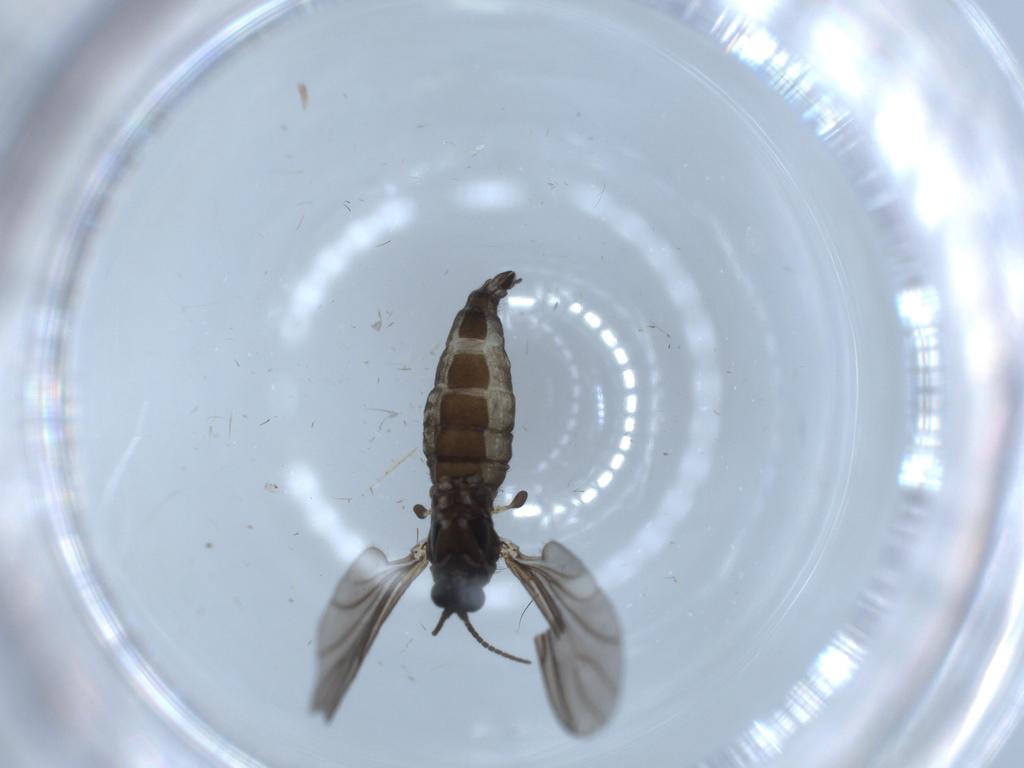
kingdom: Animalia
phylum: Arthropoda
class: Insecta
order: Diptera
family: Sciaridae
